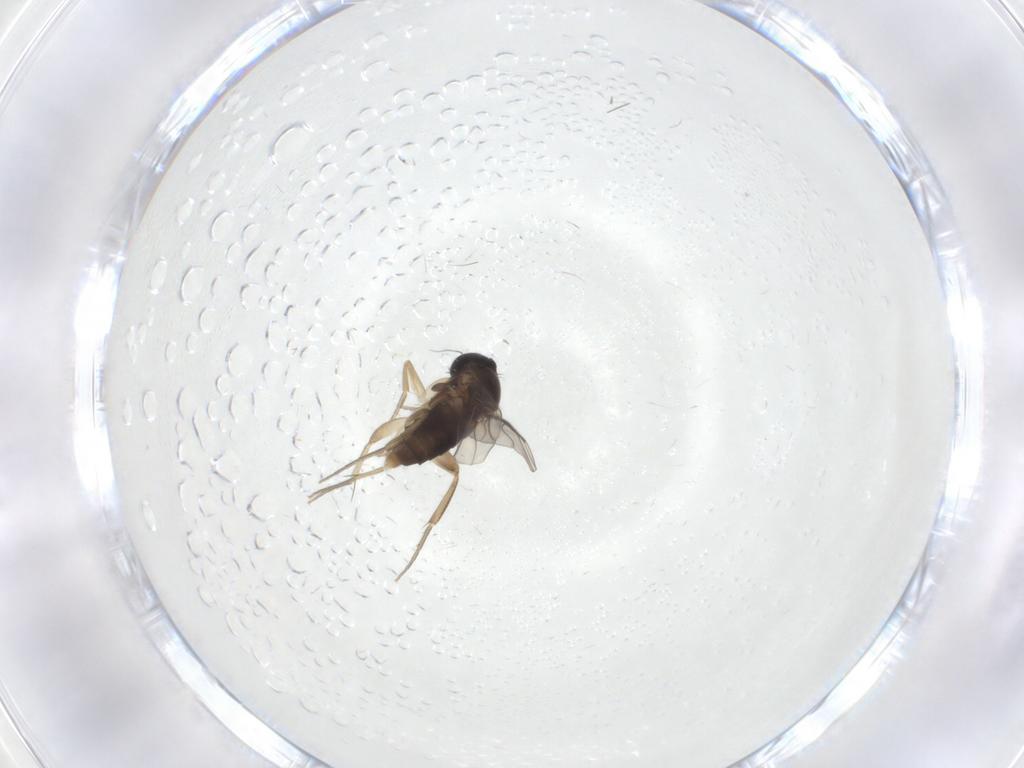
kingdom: Animalia
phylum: Arthropoda
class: Insecta
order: Diptera
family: Chironomidae
